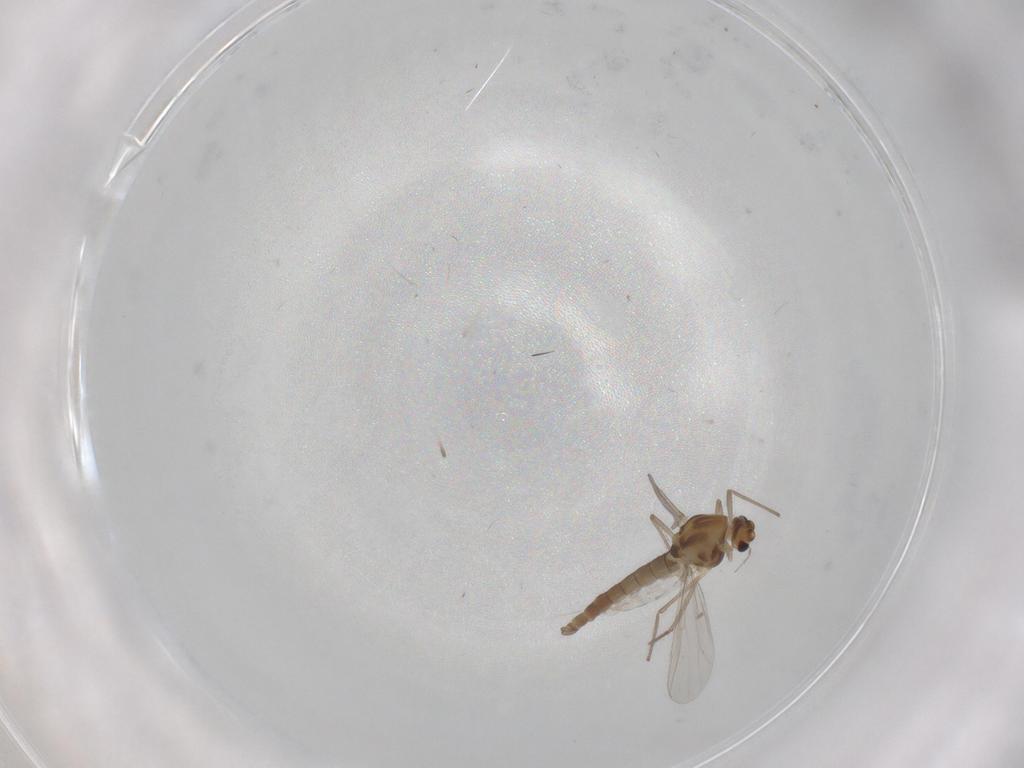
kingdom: Animalia
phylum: Arthropoda
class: Insecta
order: Diptera
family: Chironomidae
